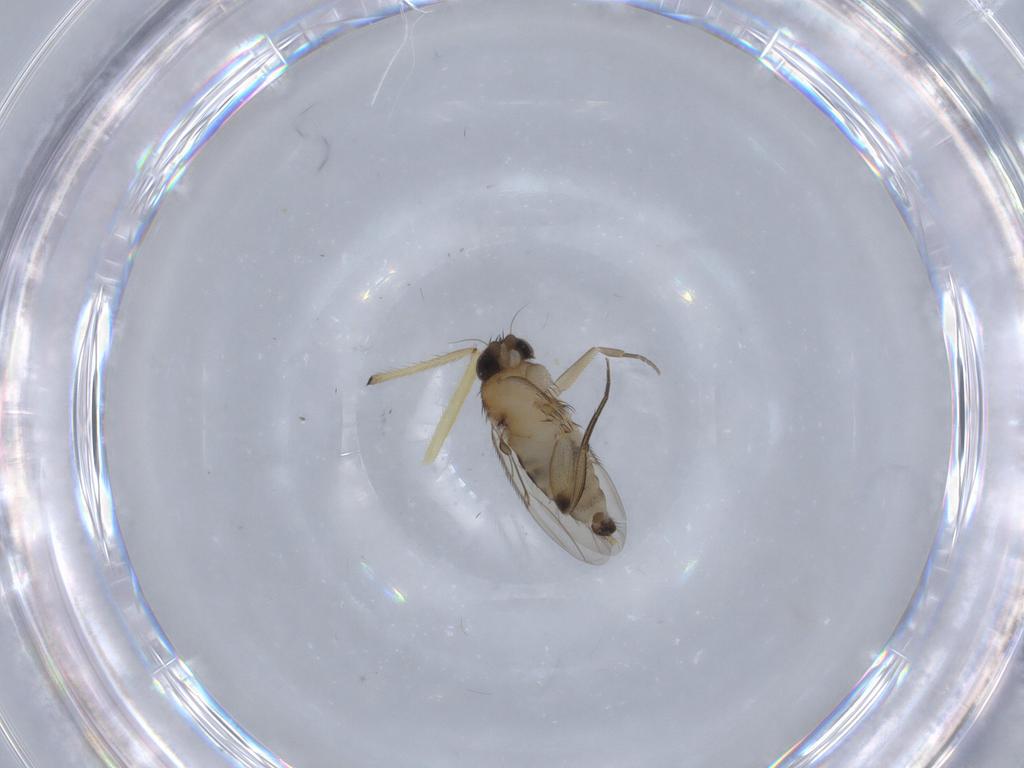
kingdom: Animalia
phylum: Arthropoda
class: Insecta
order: Diptera
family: Phoridae
